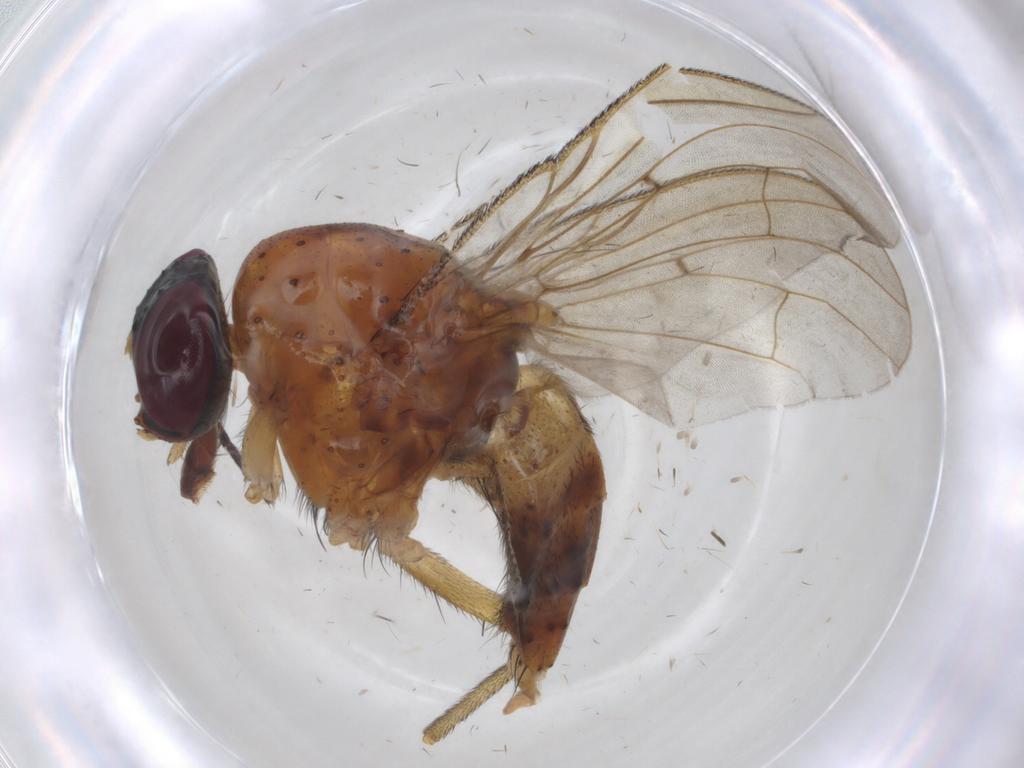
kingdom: Animalia
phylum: Arthropoda
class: Insecta
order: Diptera
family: Muscidae
